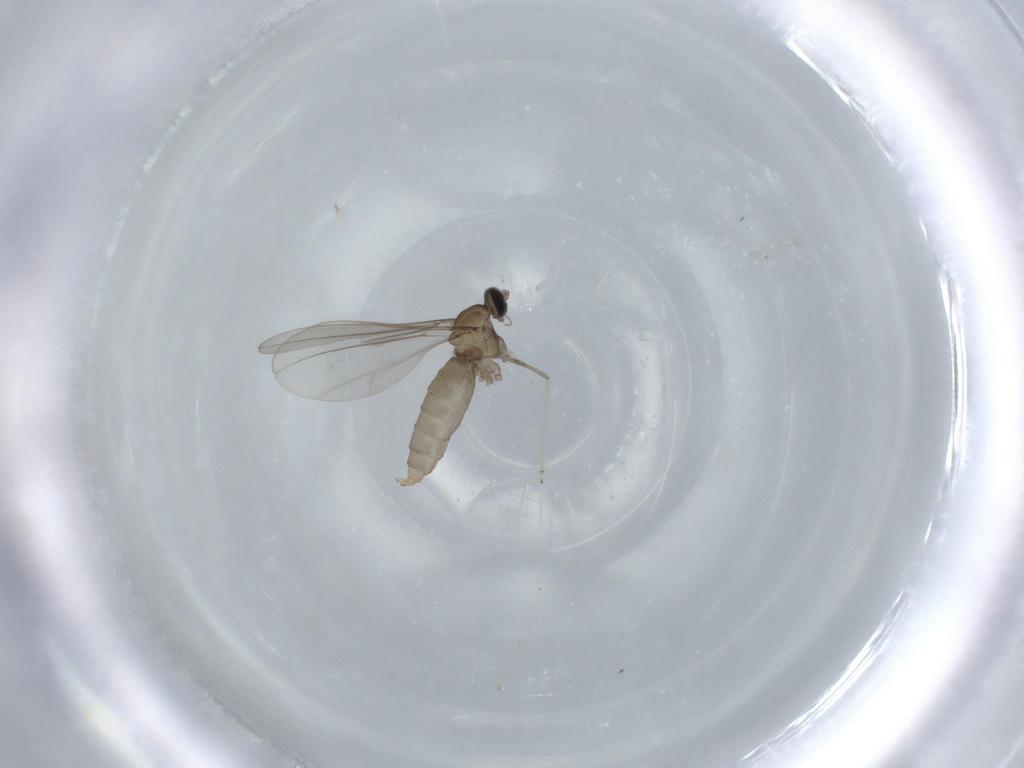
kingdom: Animalia
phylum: Arthropoda
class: Insecta
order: Diptera
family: Cecidomyiidae
